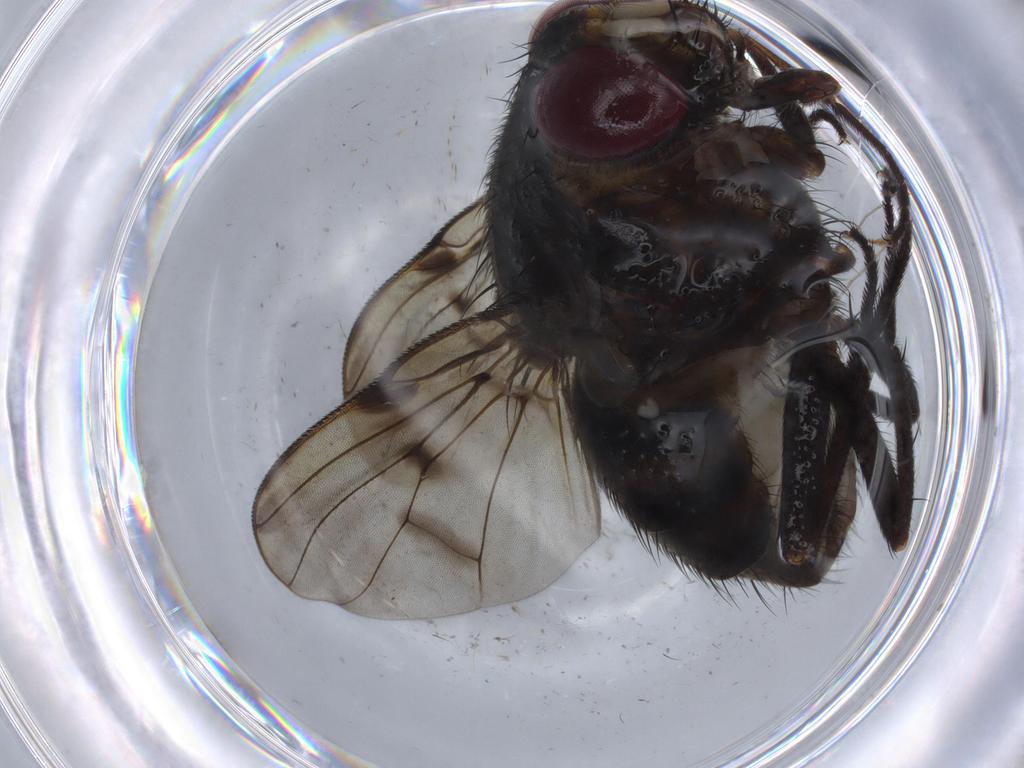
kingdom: Animalia
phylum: Arthropoda
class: Insecta
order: Diptera
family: Muscidae
